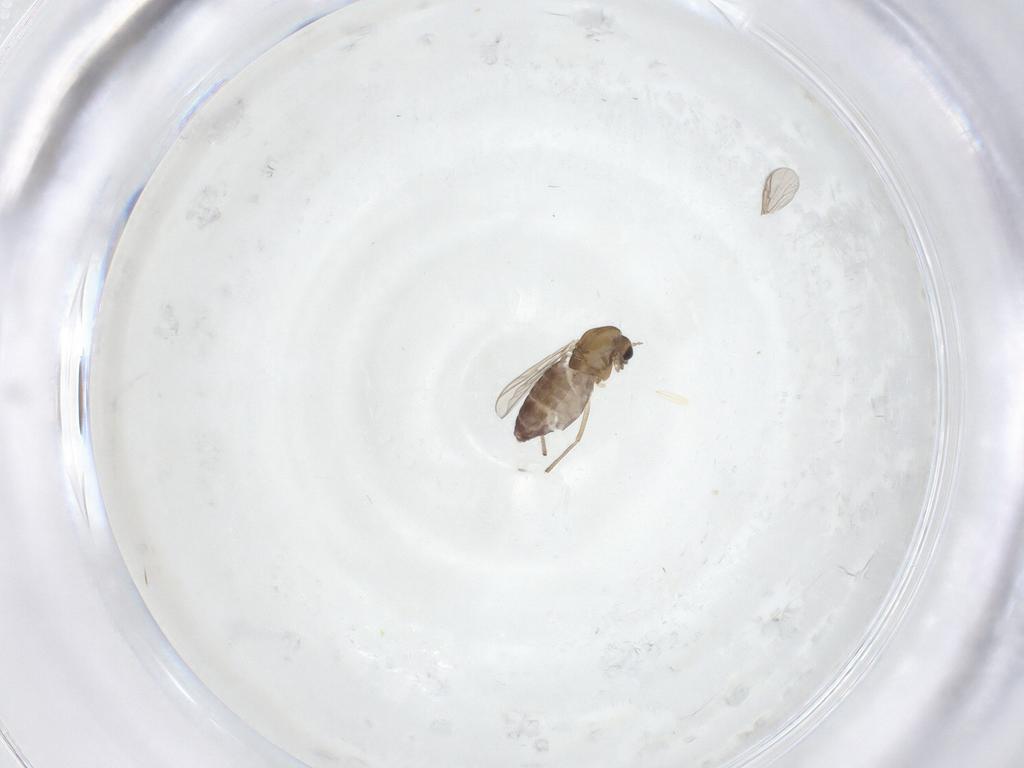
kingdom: Animalia
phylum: Arthropoda
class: Insecta
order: Diptera
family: Chironomidae
